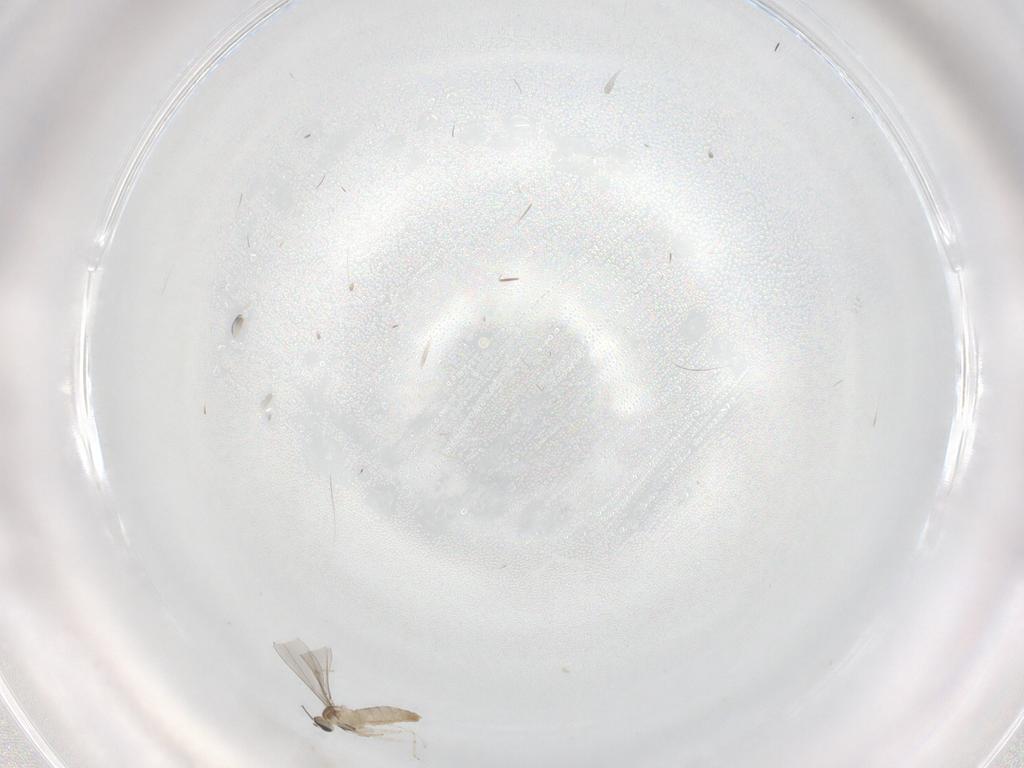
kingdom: Animalia
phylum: Arthropoda
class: Insecta
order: Diptera
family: Cecidomyiidae
